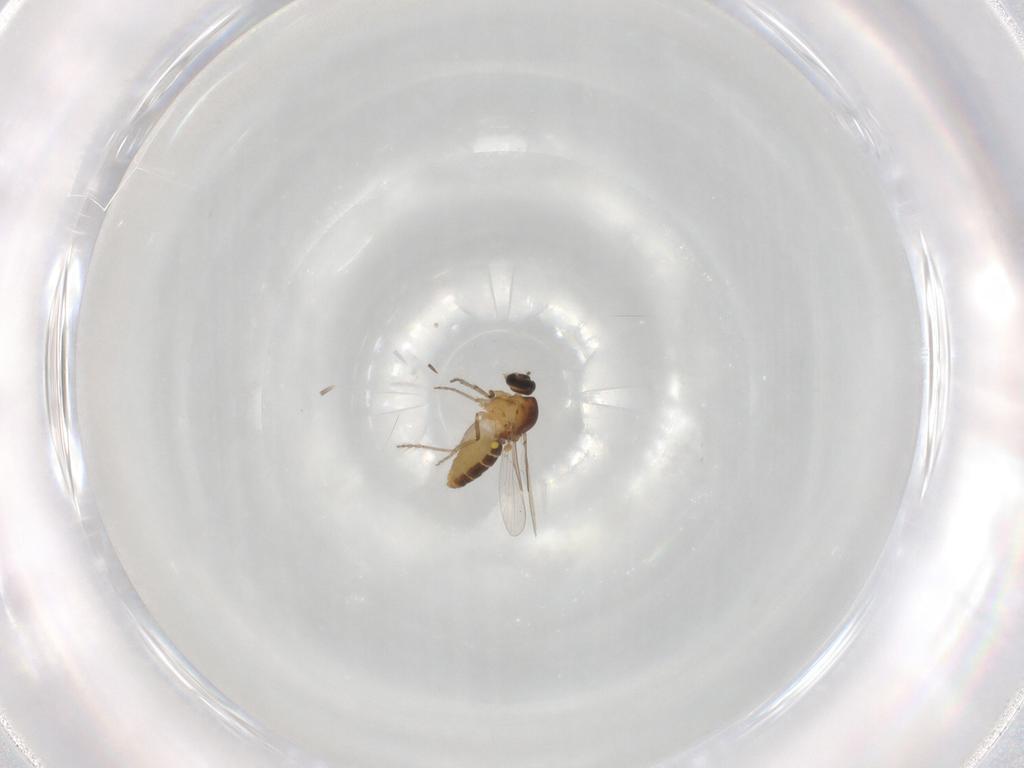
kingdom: Animalia
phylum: Arthropoda
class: Insecta
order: Diptera
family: Ceratopogonidae
